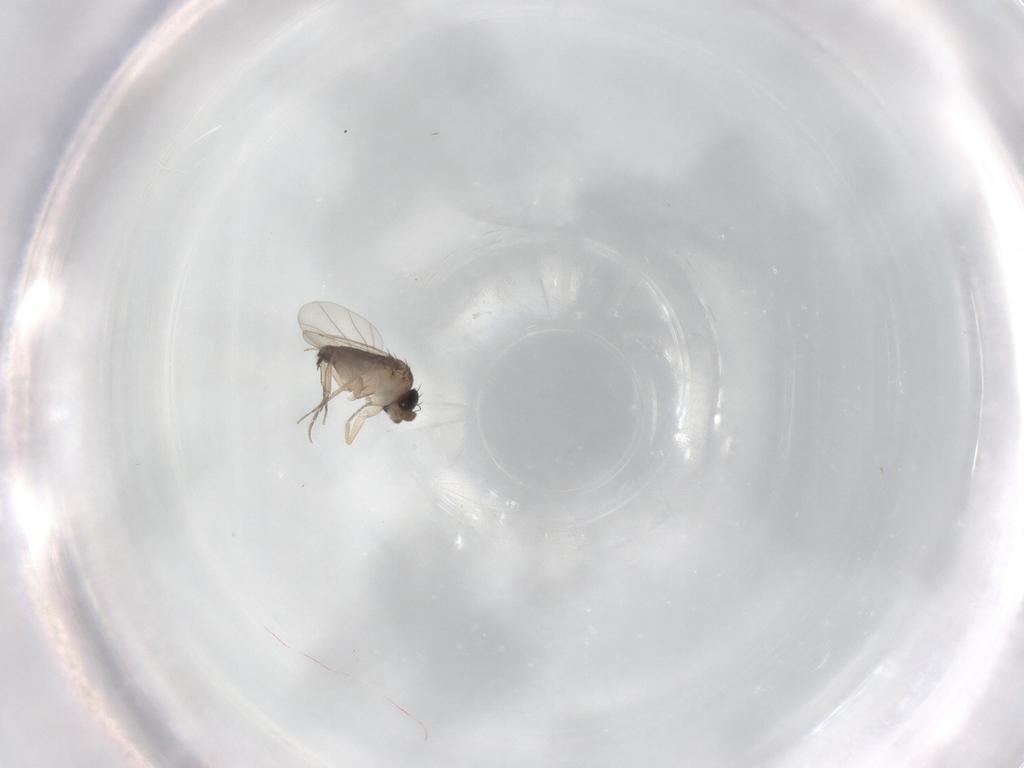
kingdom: Animalia
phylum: Arthropoda
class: Insecta
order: Diptera
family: Phoridae
